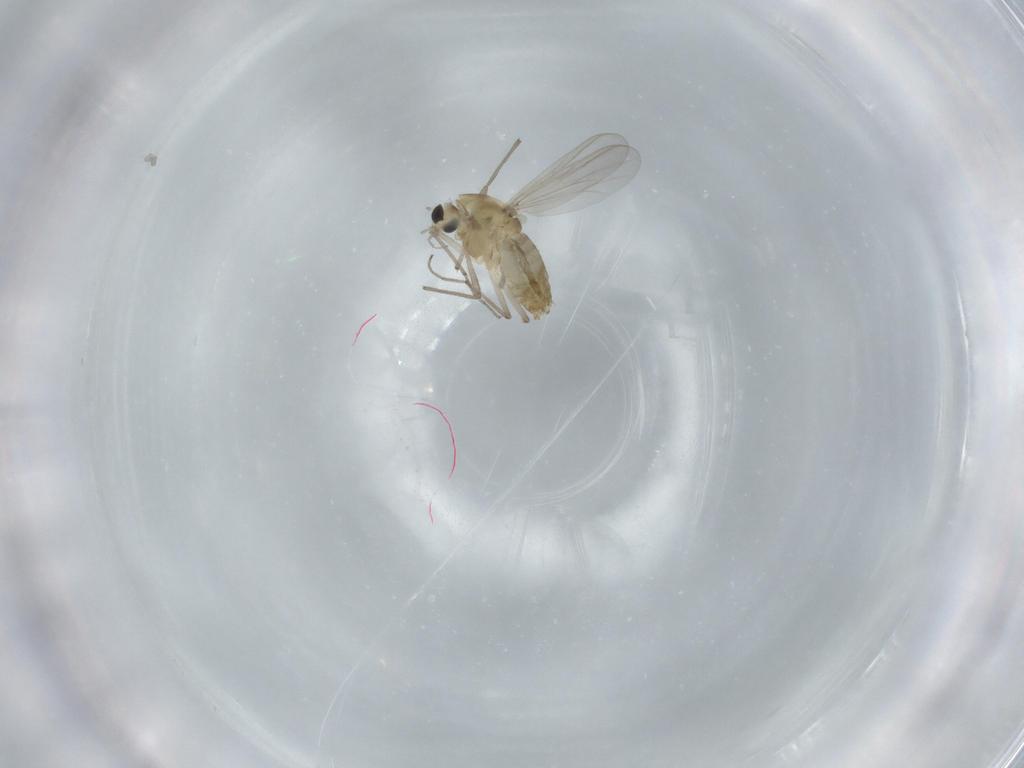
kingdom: Animalia
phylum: Arthropoda
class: Insecta
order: Diptera
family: Chironomidae
